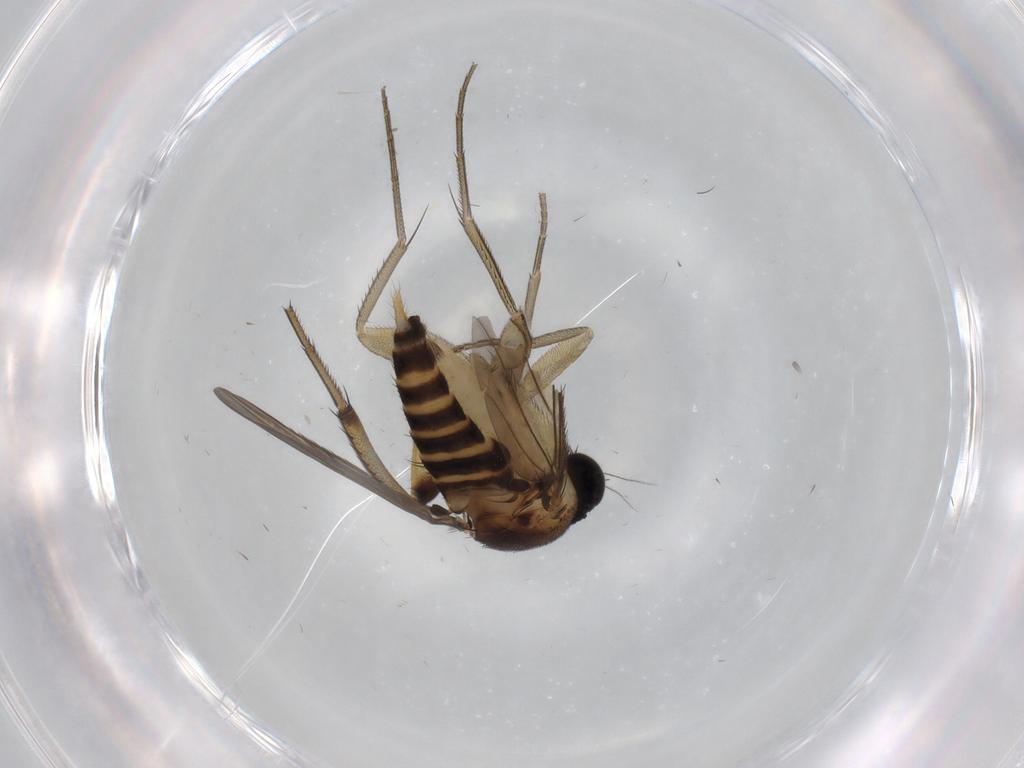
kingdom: Animalia
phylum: Arthropoda
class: Insecta
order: Diptera
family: Phoridae
